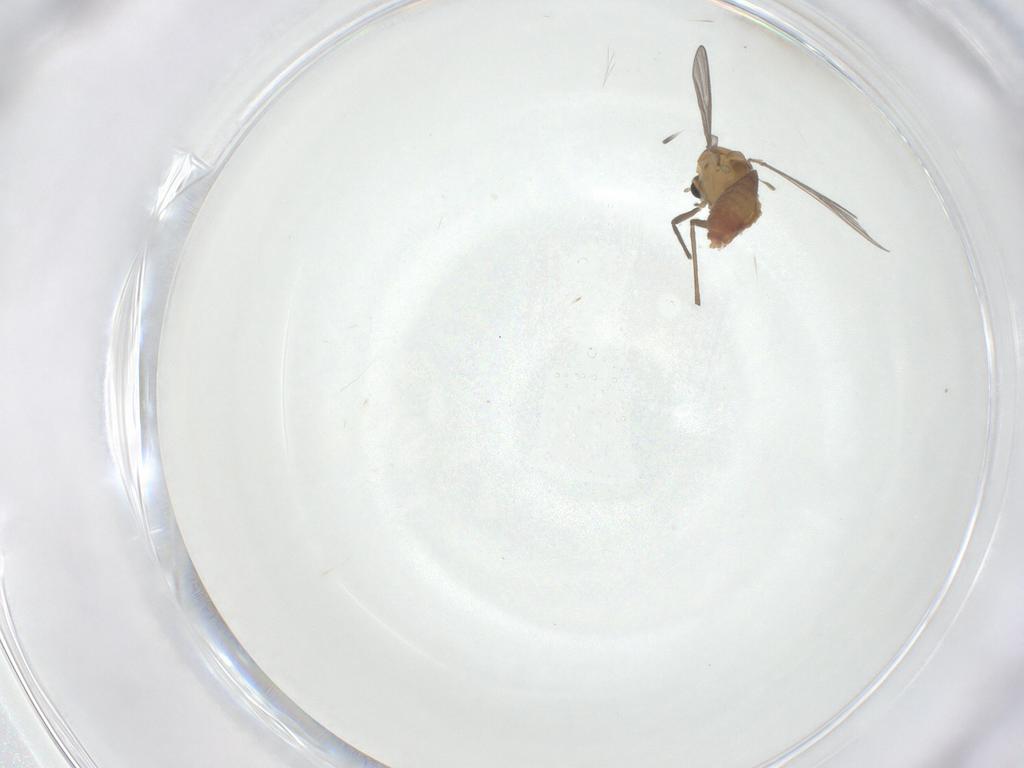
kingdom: Animalia
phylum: Arthropoda
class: Insecta
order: Diptera
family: Chironomidae
